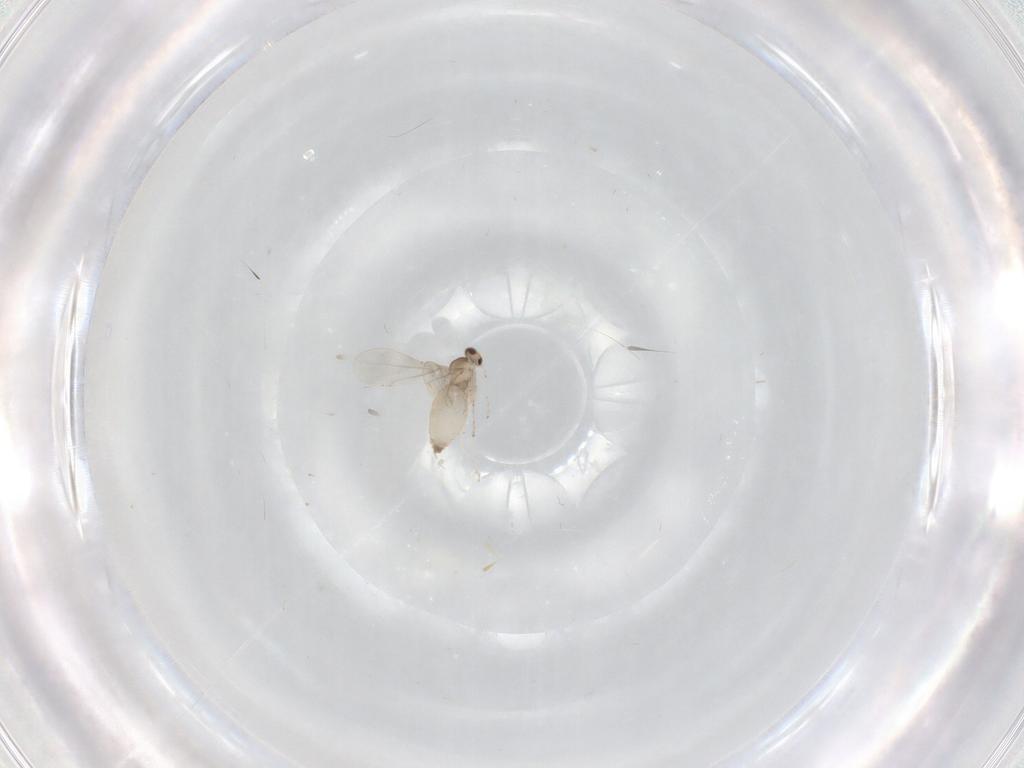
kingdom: Animalia
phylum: Arthropoda
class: Insecta
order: Diptera
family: Cecidomyiidae
